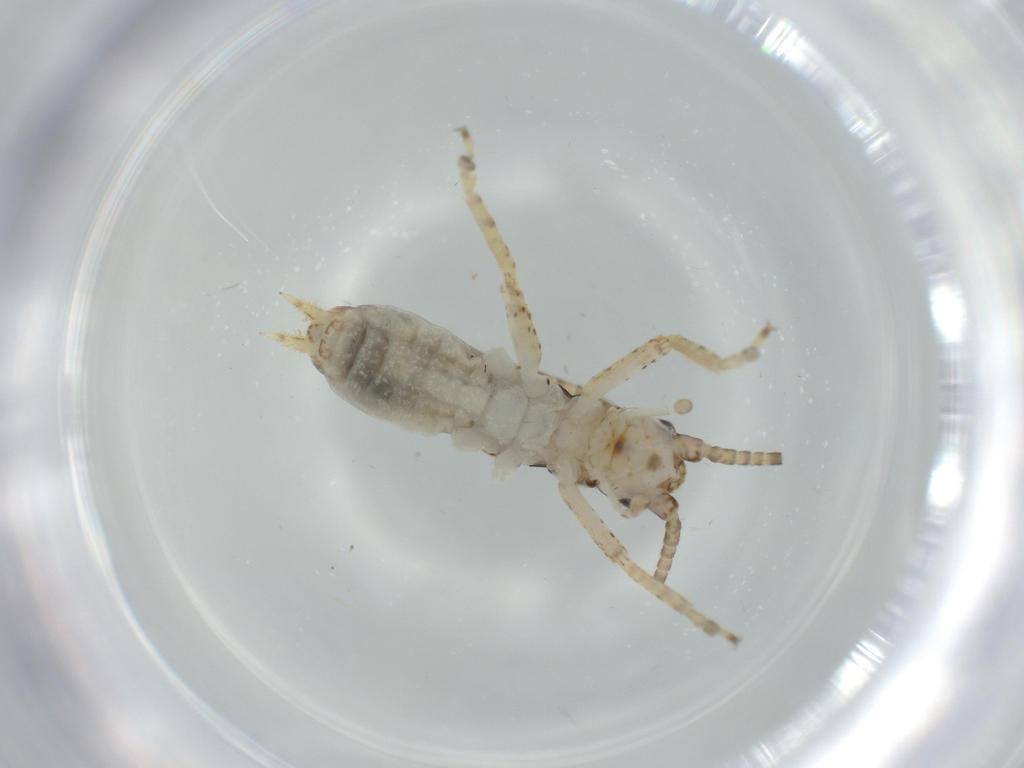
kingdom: Animalia
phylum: Arthropoda
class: Insecta
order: Orthoptera
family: Gryllidae
